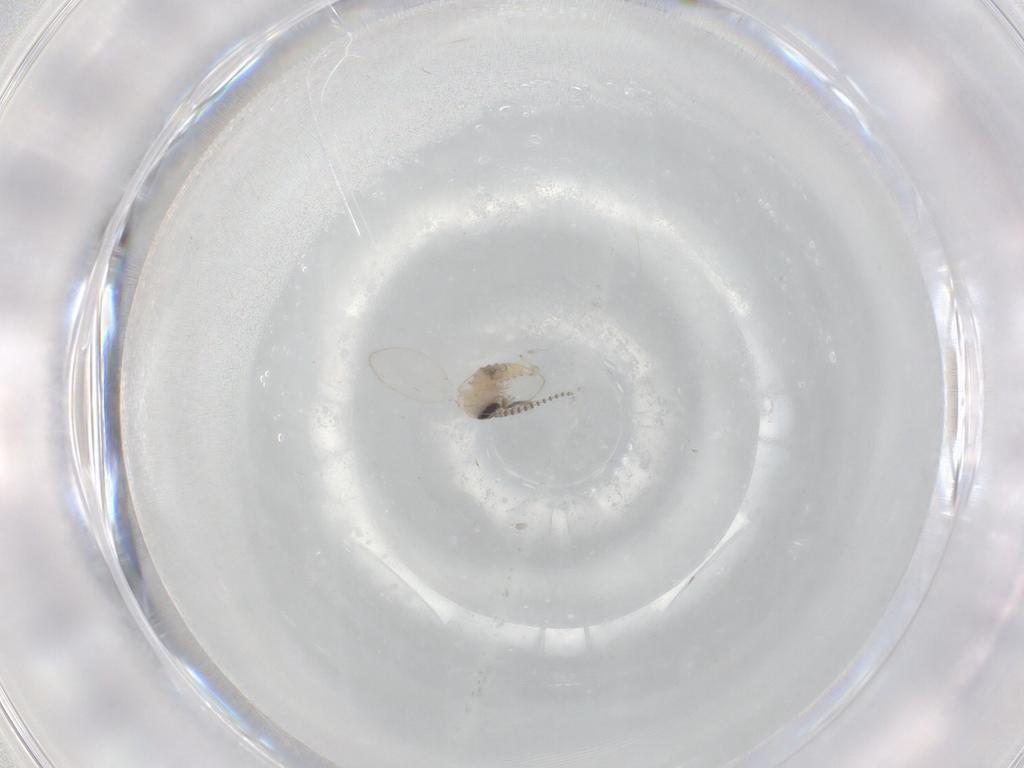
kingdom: Animalia
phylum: Arthropoda
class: Insecta
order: Diptera
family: Psychodidae
